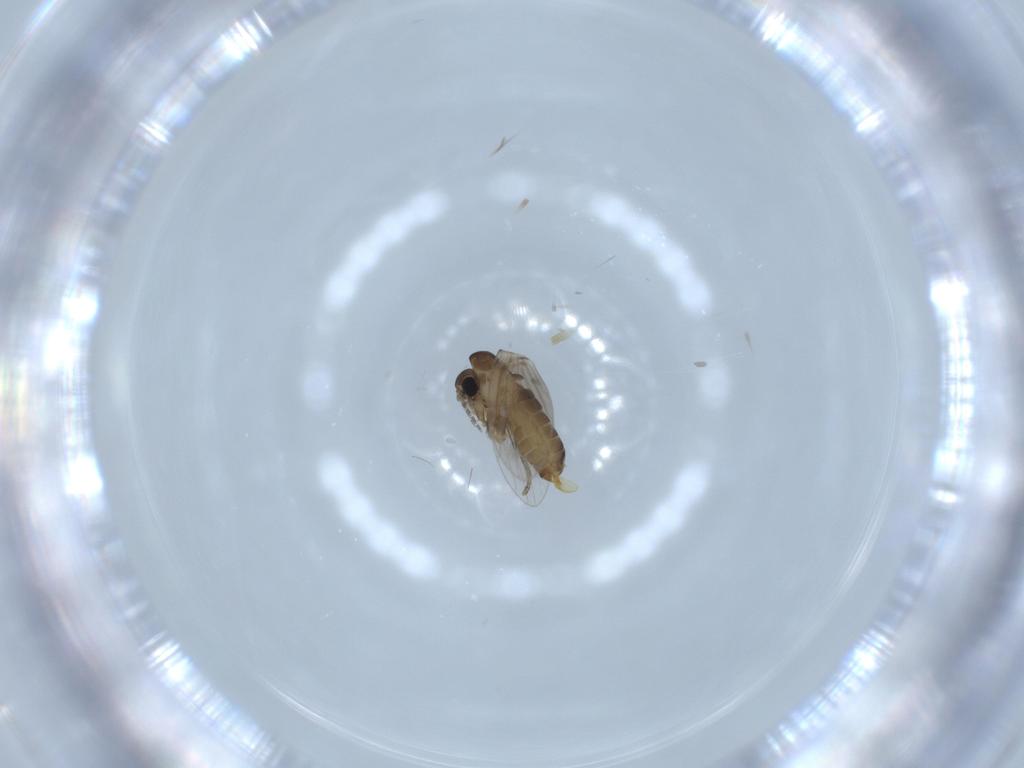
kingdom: Animalia
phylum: Arthropoda
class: Insecta
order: Diptera
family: Psychodidae
